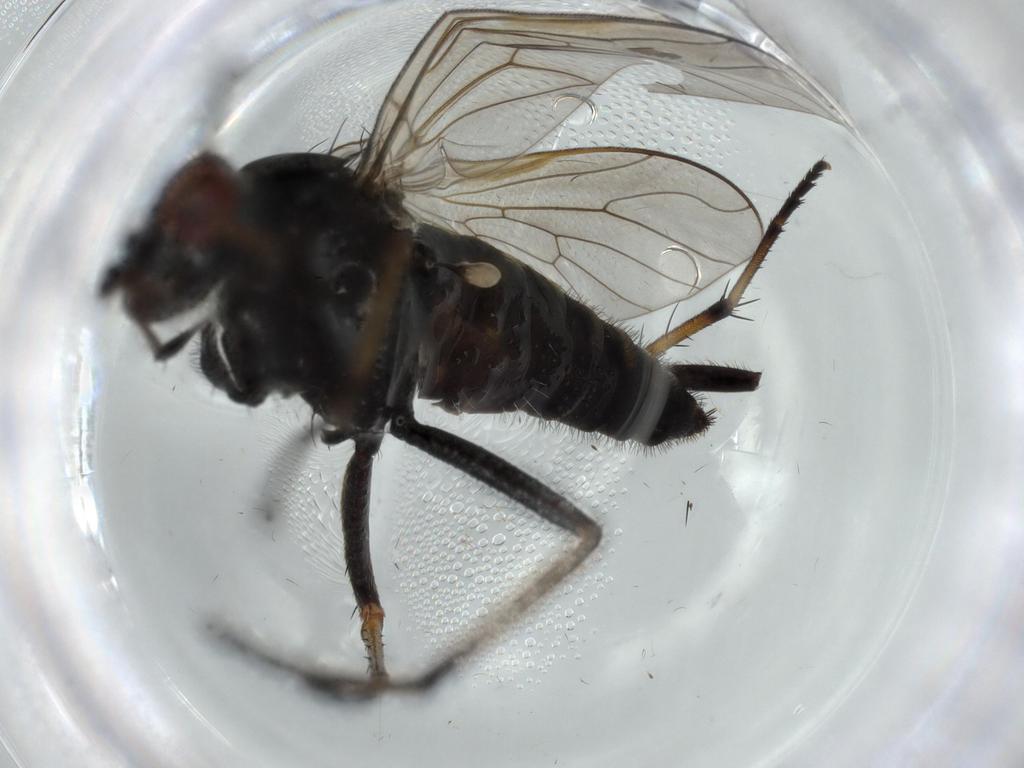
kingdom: Animalia
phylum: Arthropoda
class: Insecta
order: Diptera
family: Therevidae
